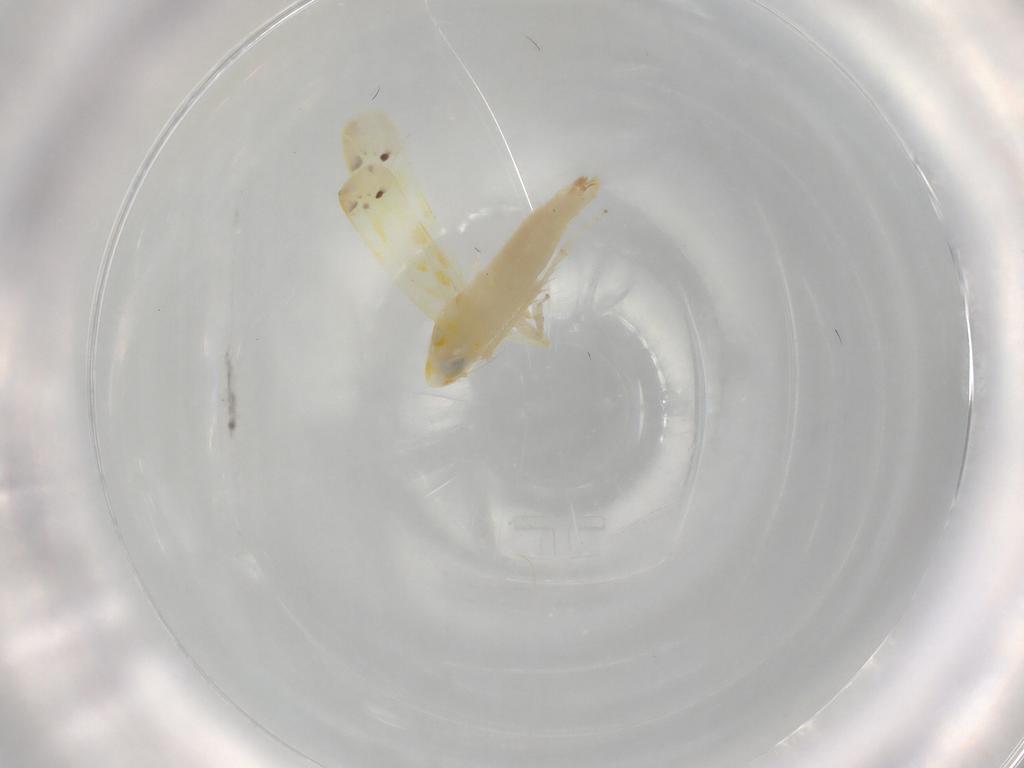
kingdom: Animalia
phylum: Arthropoda
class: Insecta
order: Hemiptera
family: Cicadellidae
